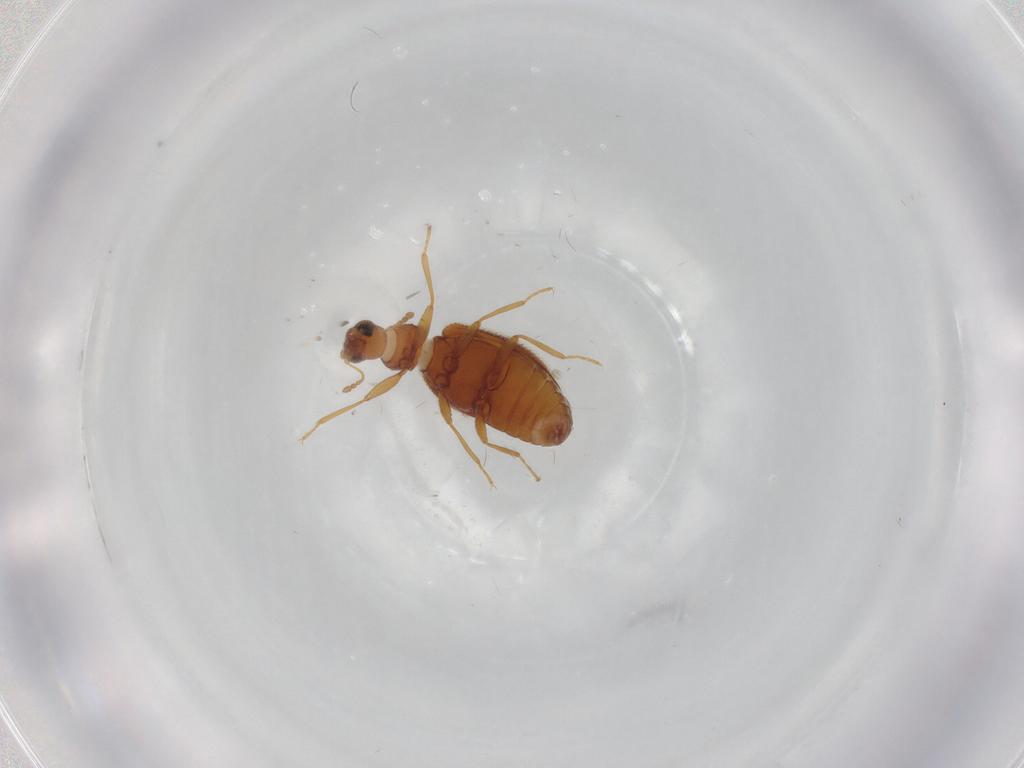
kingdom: Animalia
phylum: Arthropoda
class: Insecta
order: Coleoptera
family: Latridiidae
